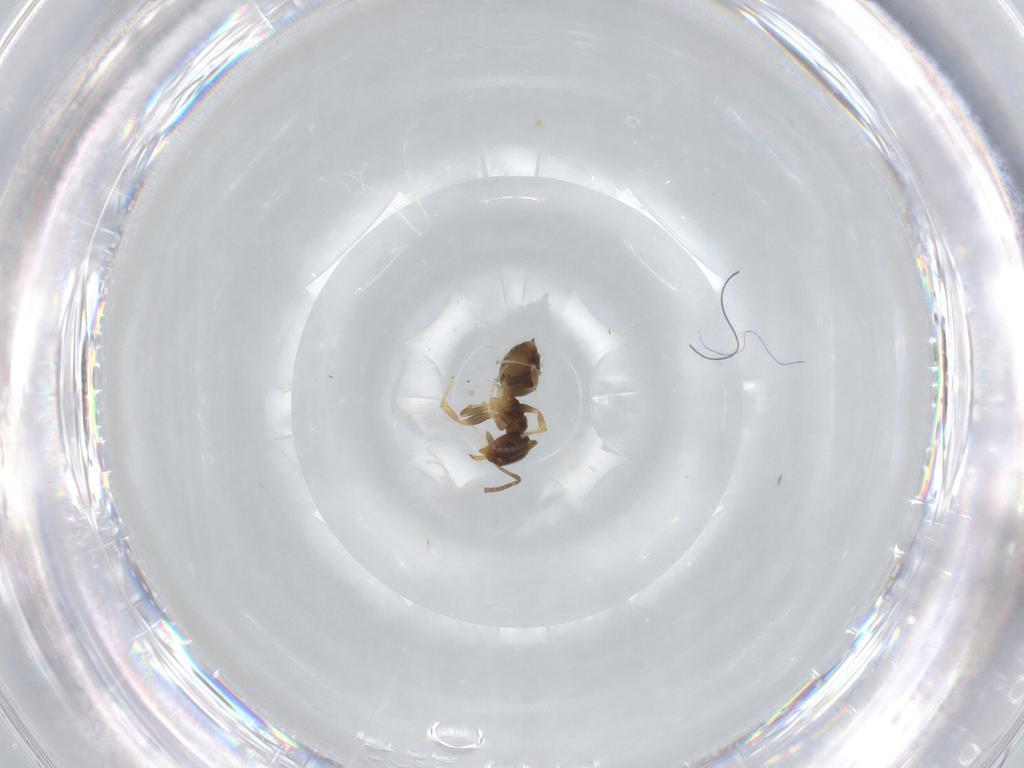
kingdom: Animalia
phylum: Arthropoda
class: Insecta
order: Hymenoptera
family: Formicidae
